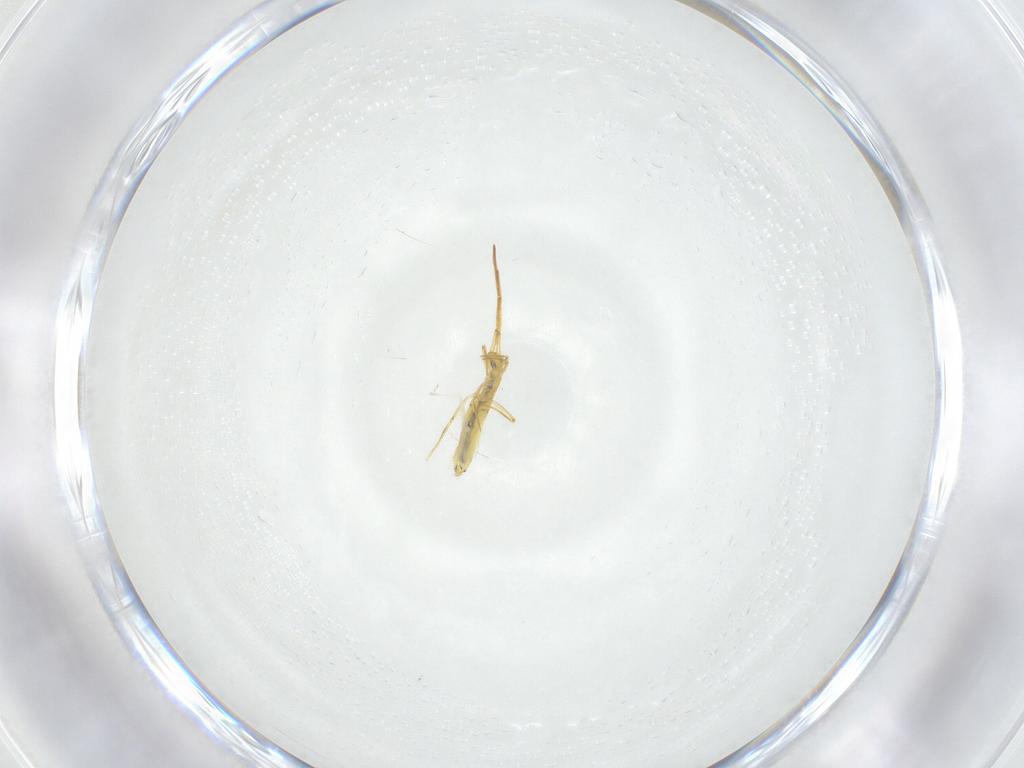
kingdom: Animalia
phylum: Arthropoda
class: Collembola
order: Entomobryomorpha
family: Entomobryidae
